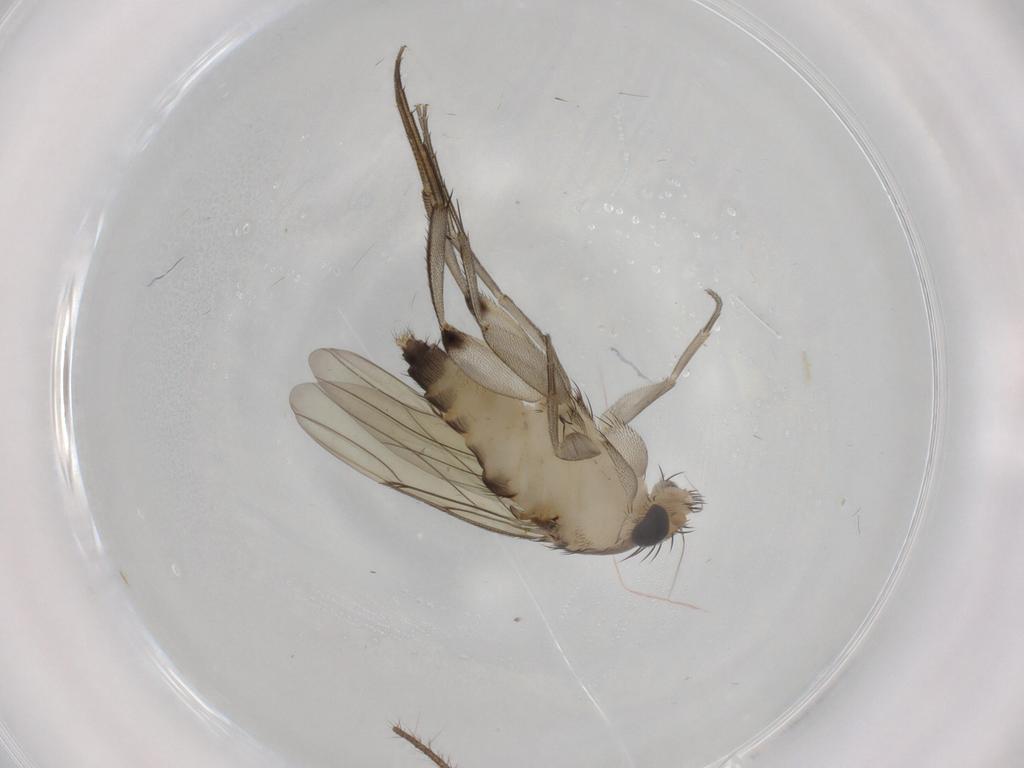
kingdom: Animalia
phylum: Arthropoda
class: Insecta
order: Diptera
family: Phoridae
